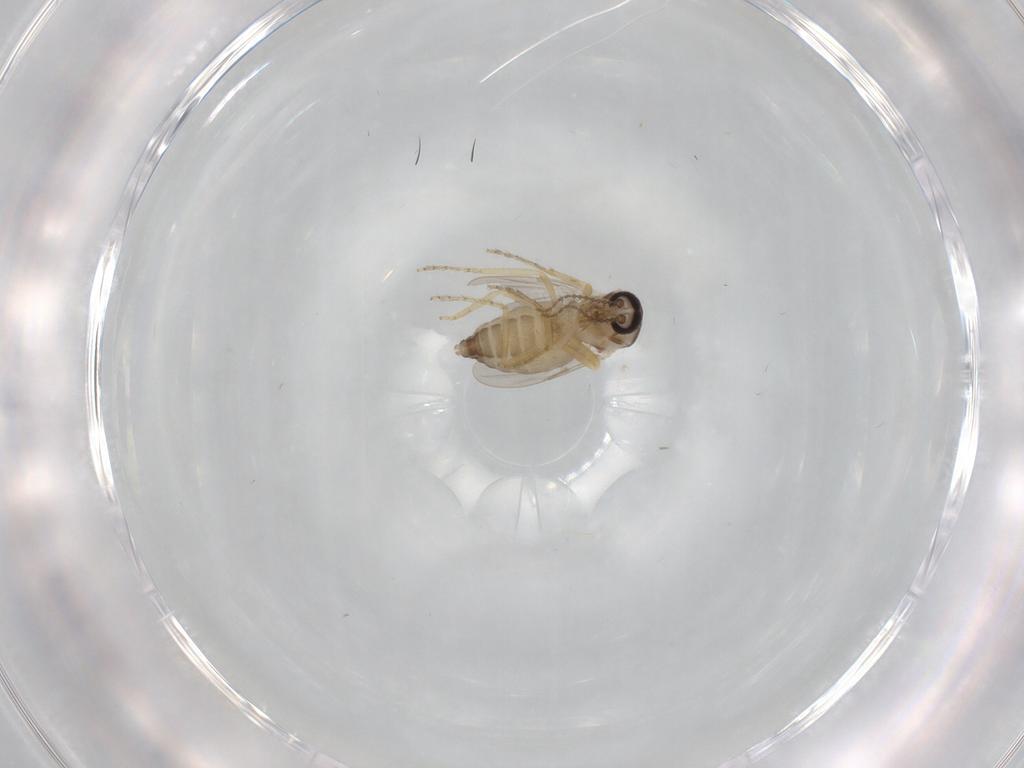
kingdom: Animalia
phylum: Arthropoda
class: Insecta
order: Diptera
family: Ceratopogonidae
